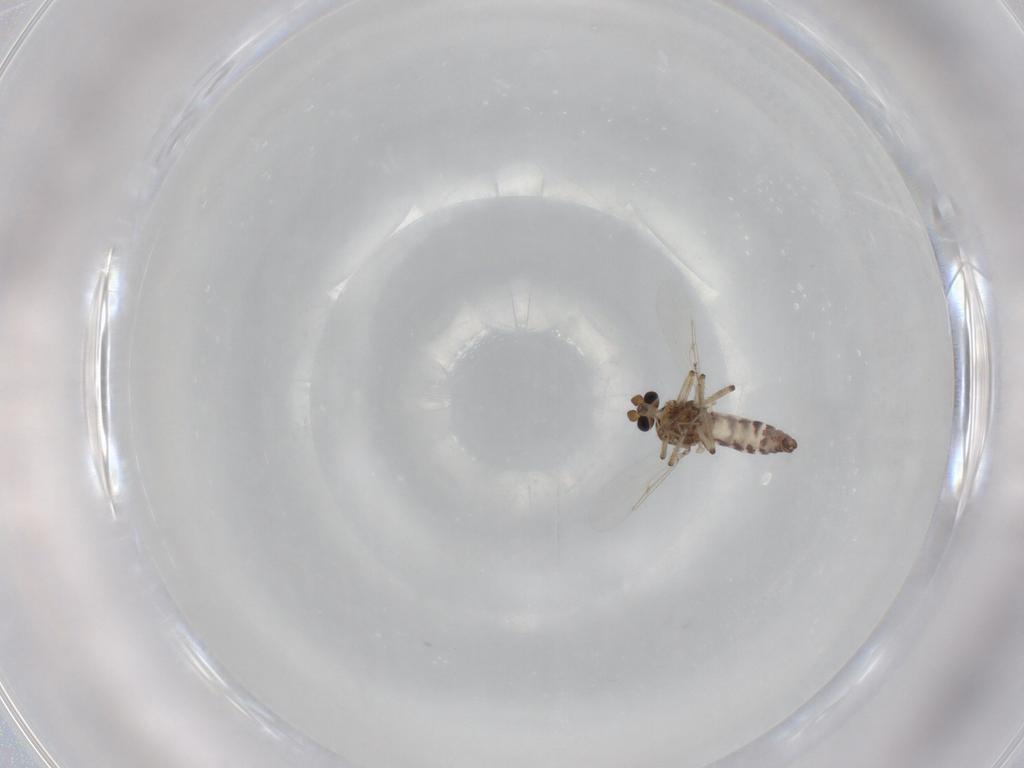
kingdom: Animalia
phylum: Arthropoda
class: Insecta
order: Diptera
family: Ceratopogonidae
